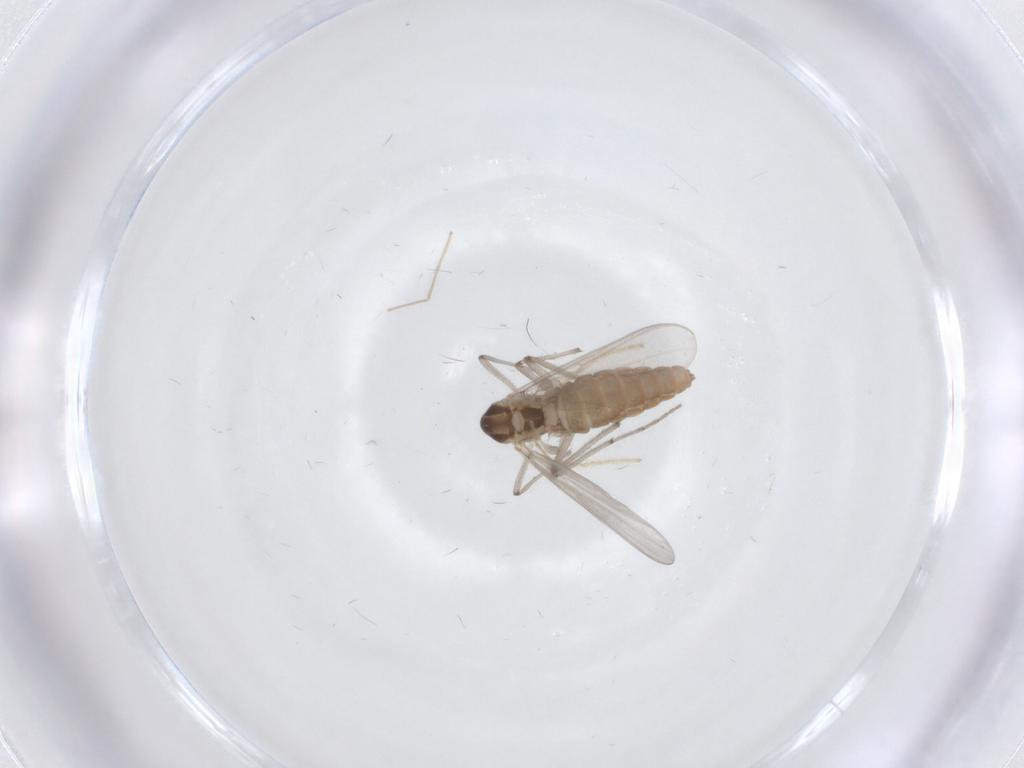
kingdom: Animalia
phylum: Arthropoda
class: Insecta
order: Diptera
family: Chironomidae
